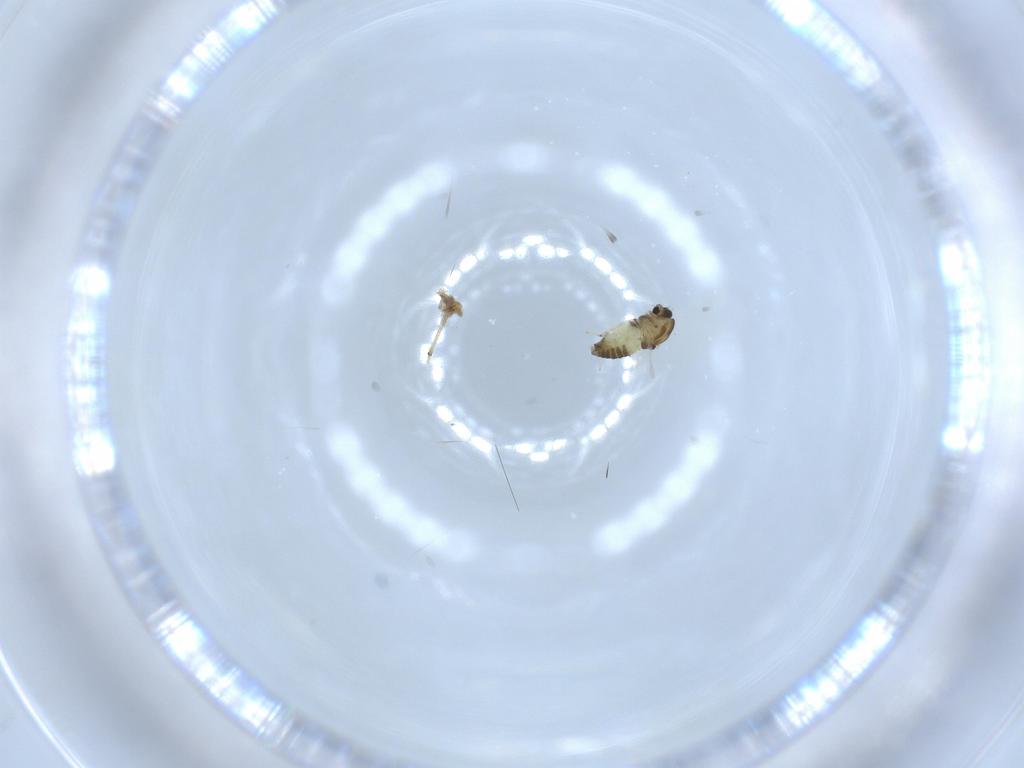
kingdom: Animalia
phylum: Arthropoda
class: Insecta
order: Diptera
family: Chironomidae
